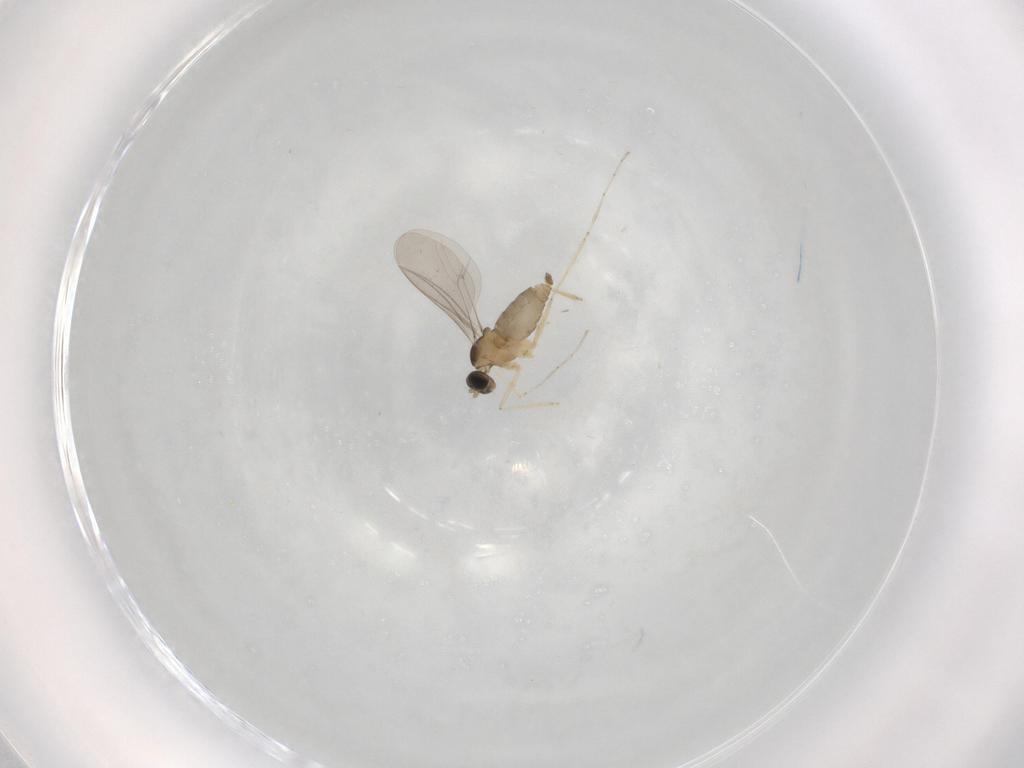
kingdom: Animalia
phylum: Arthropoda
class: Insecta
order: Diptera
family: Cecidomyiidae
